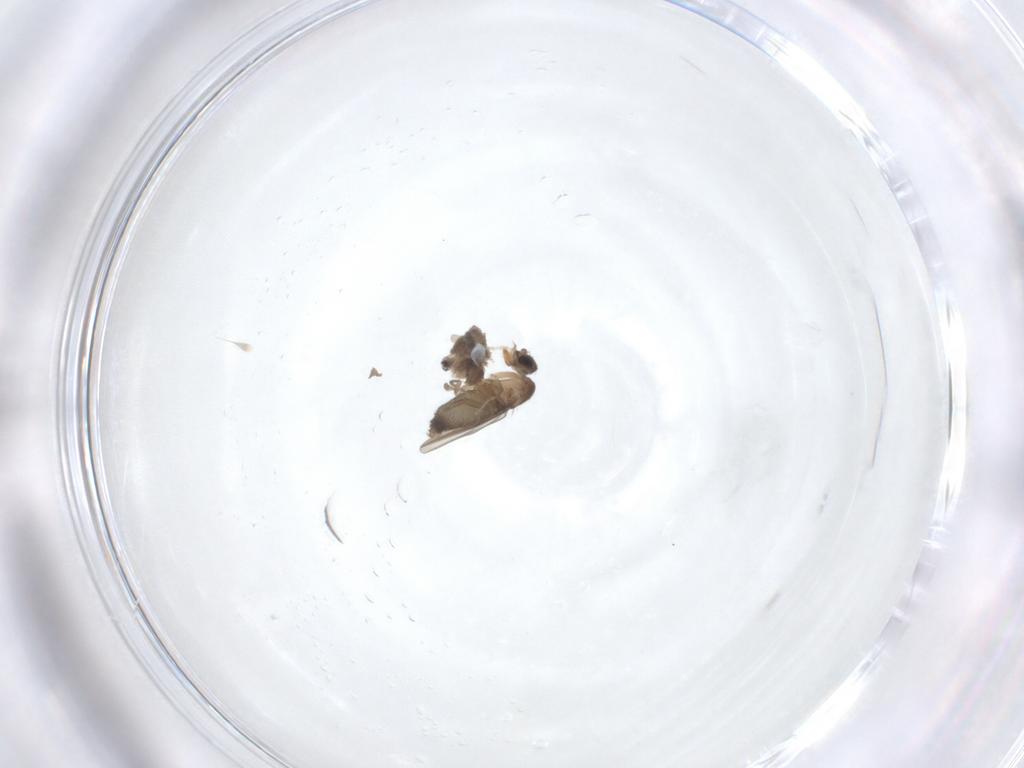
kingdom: Animalia
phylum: Arthropoda
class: Insecta
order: Diptera
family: Cecidomyiidae
